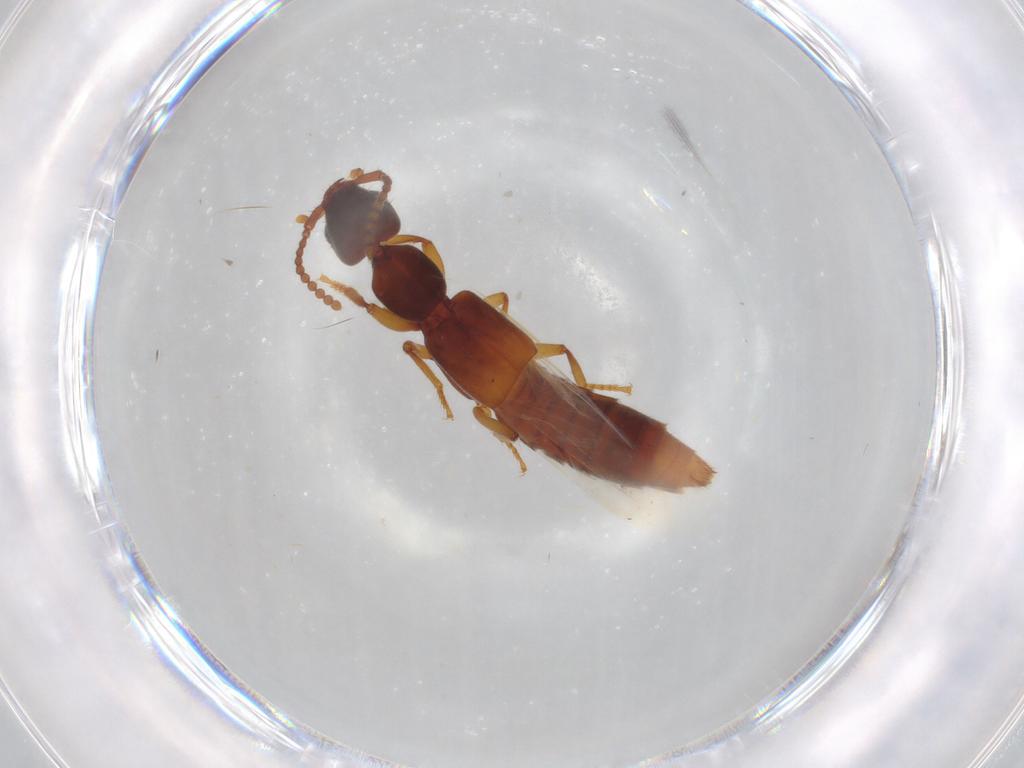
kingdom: Animalia
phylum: Arthropoda
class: Insecta
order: Coleoptera
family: Staphylinidae
